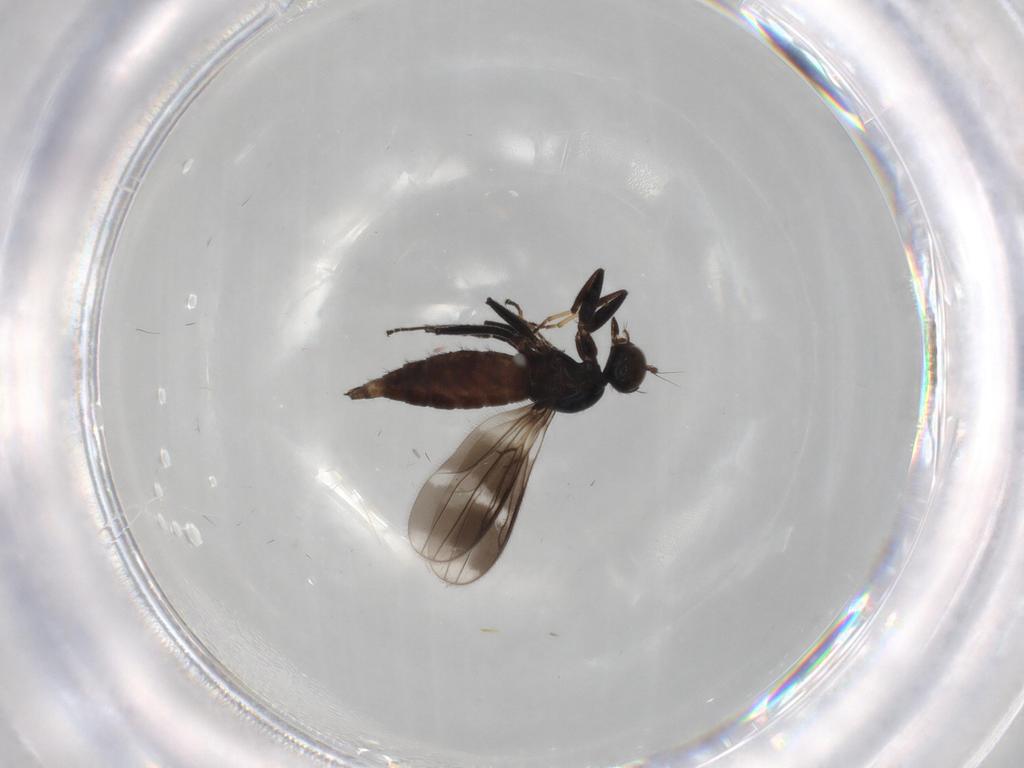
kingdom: Animalia
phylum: Arthropoda
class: Insecta
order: Diptera
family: Hybotidae
